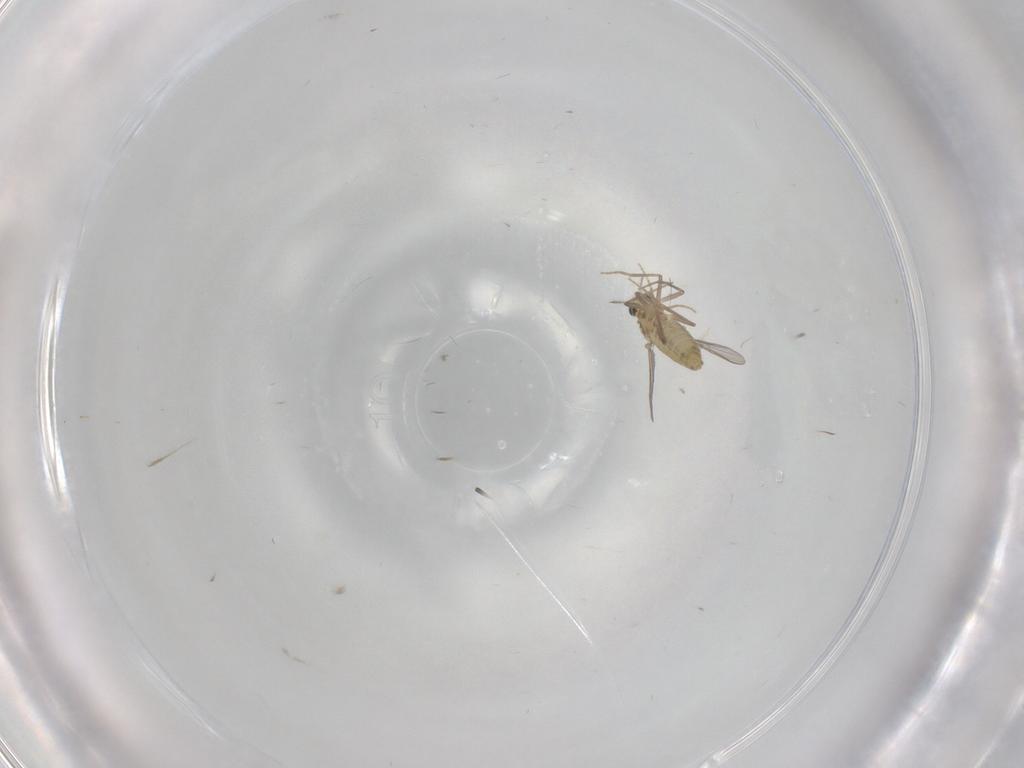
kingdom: Animalia
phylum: Arthropoda
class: Insecta
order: Diptera
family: Chironomidae
